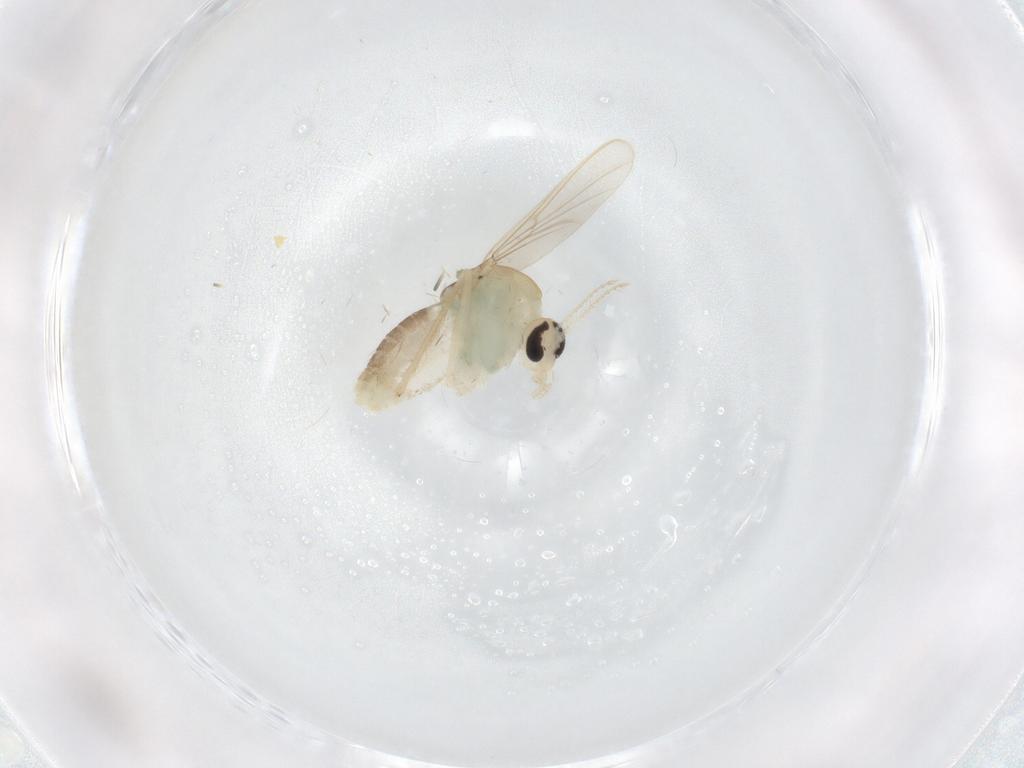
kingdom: Animalia
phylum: Arthropoda
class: Insecta
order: Diptera
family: Chironomidae
